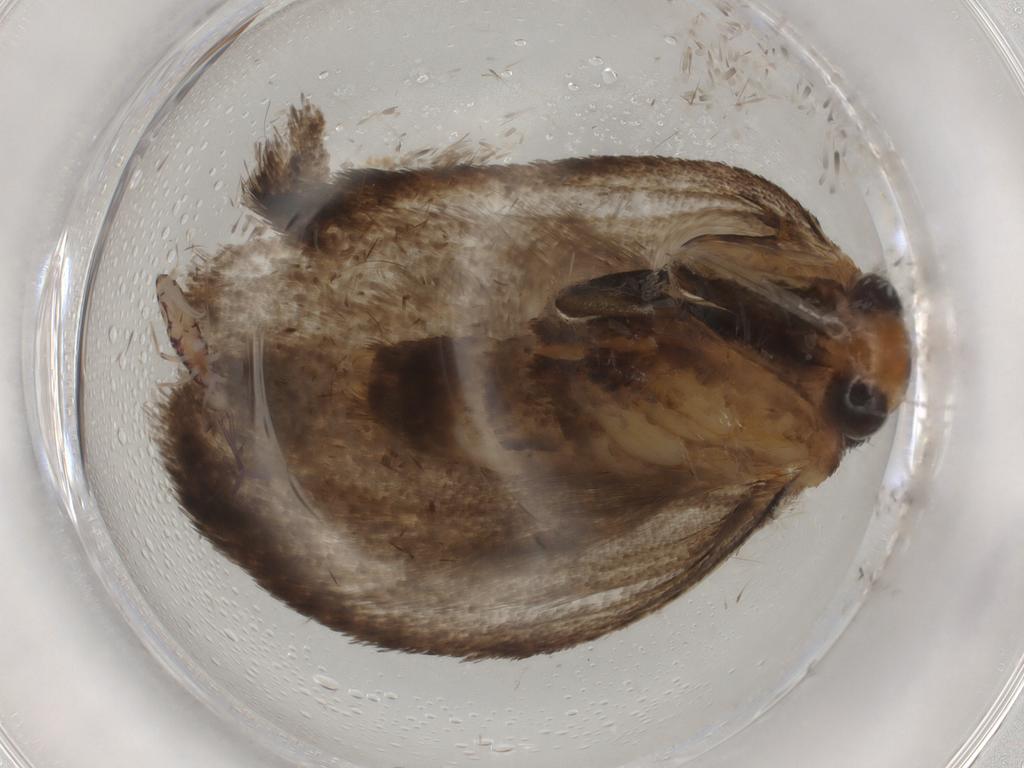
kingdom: Animalia
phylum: Arthropoda
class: Insecta
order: Lepidoptera
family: Oecophoridae
